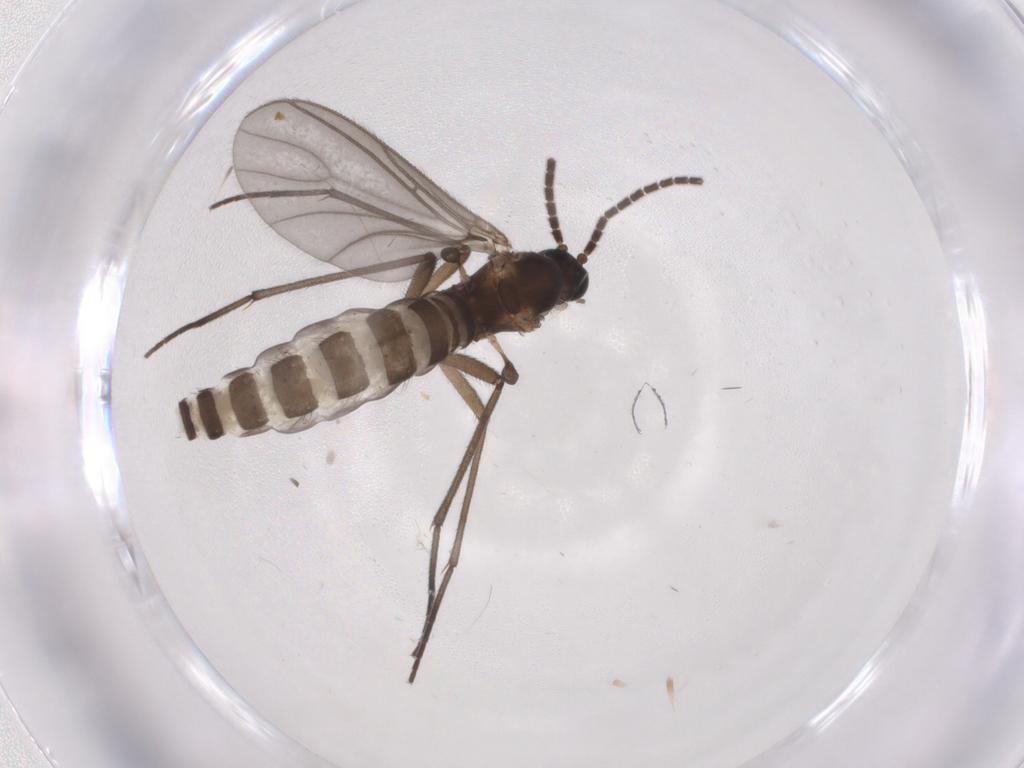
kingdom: Animalia
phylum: Arthropoda
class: Insecta
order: Diptera
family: Sciaridae
